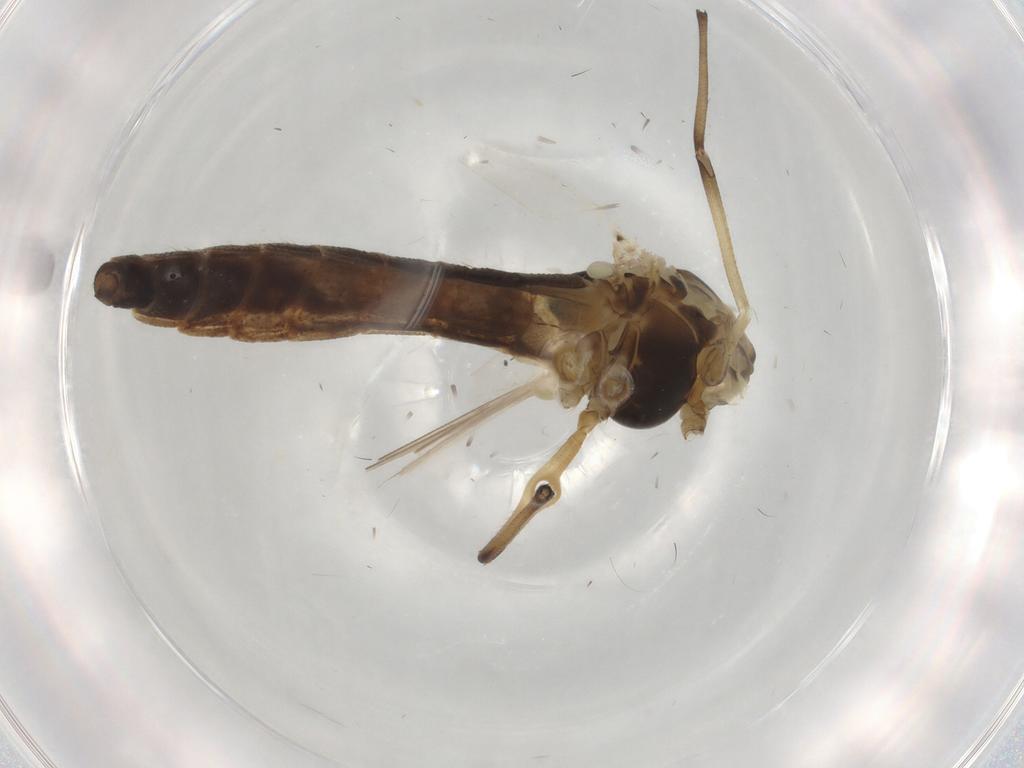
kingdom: Animalia
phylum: Arthropoda
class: Insecta
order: Diptera
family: Chironomidae
